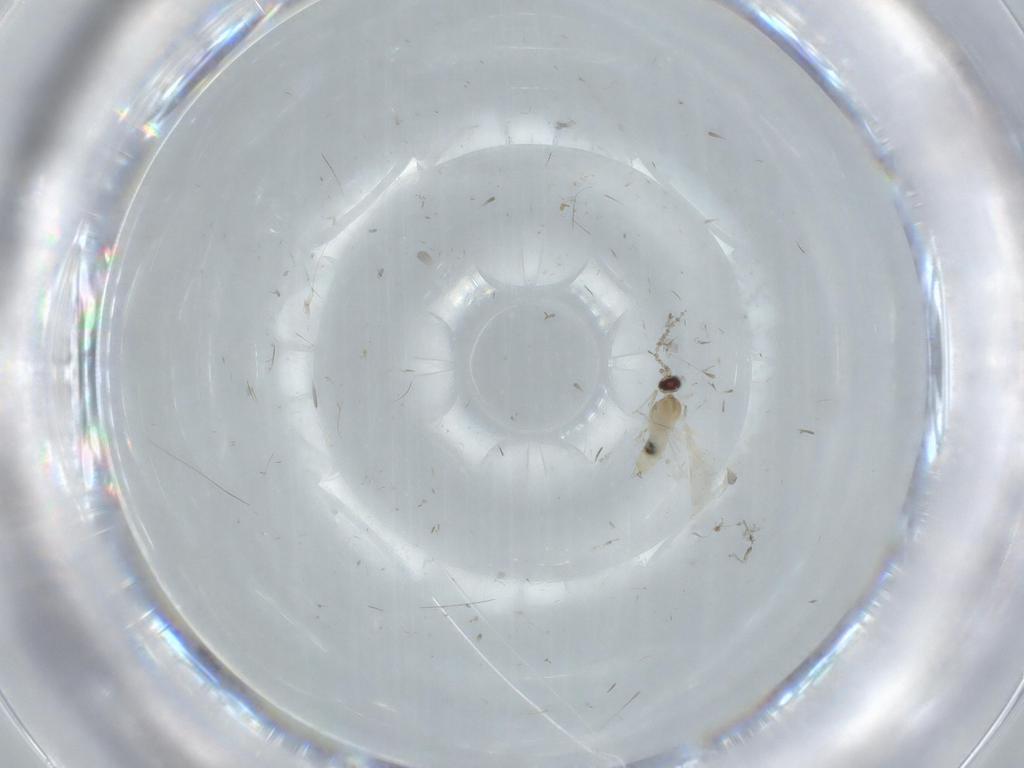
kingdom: Animalia
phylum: Arthropoda
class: Insecta
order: Diptera
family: Cecidomyiidae
